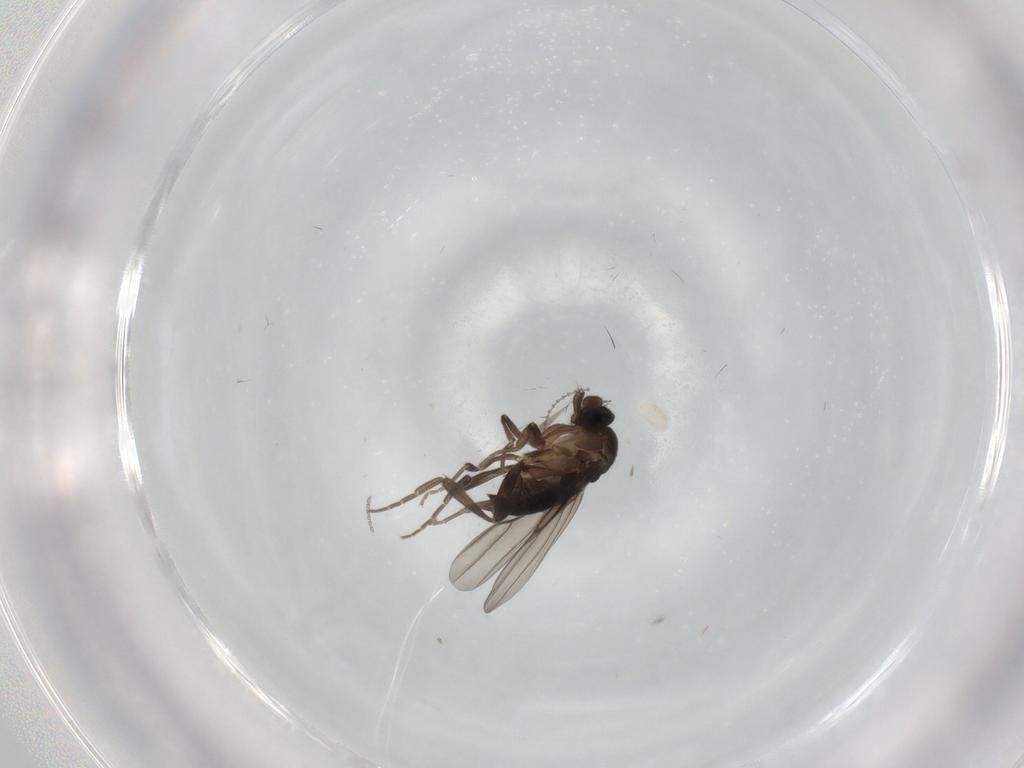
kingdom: Animalia
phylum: Arthropoda
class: Insecta
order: Diptera
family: Phoridae
